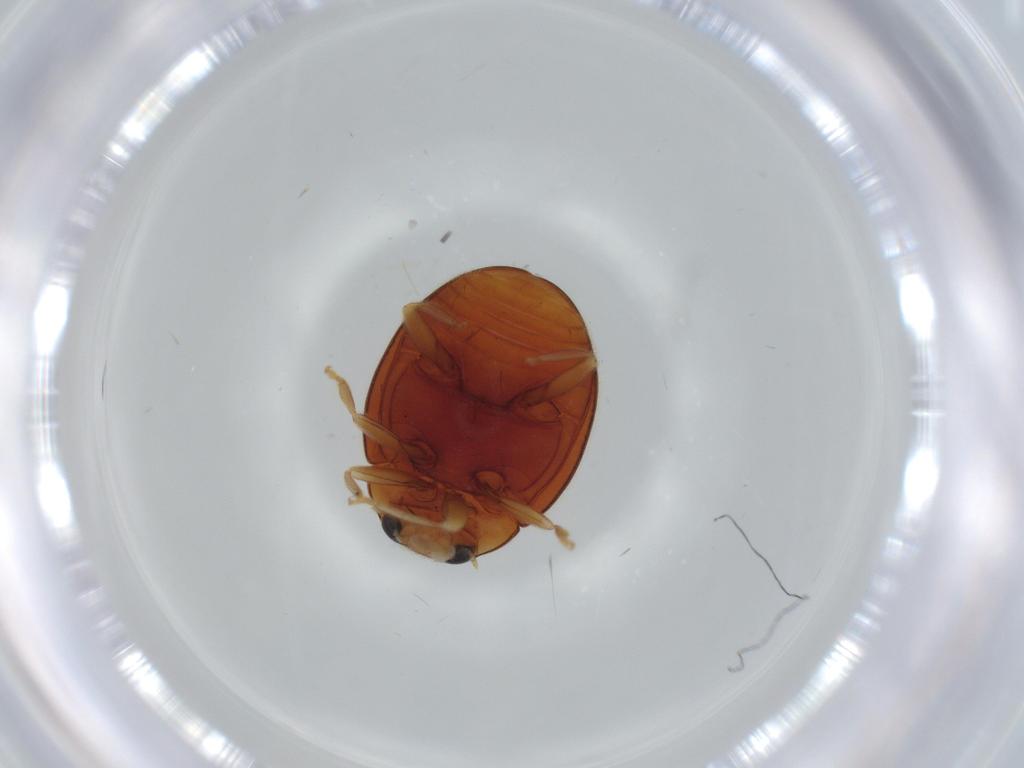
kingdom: Animalia
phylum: Arthropoda
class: Insecta
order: Coleoptera
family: Coccinellidae
